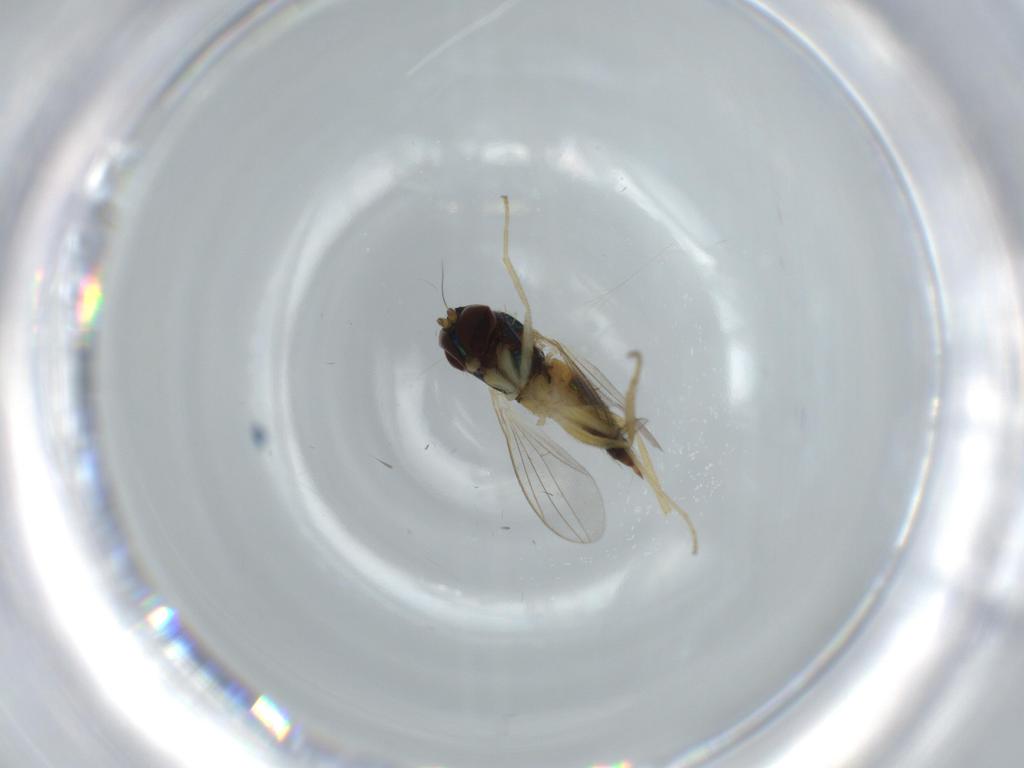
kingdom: Animalia
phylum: Arthropoda
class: Insecta
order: Diptera
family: Dolichopodidae
